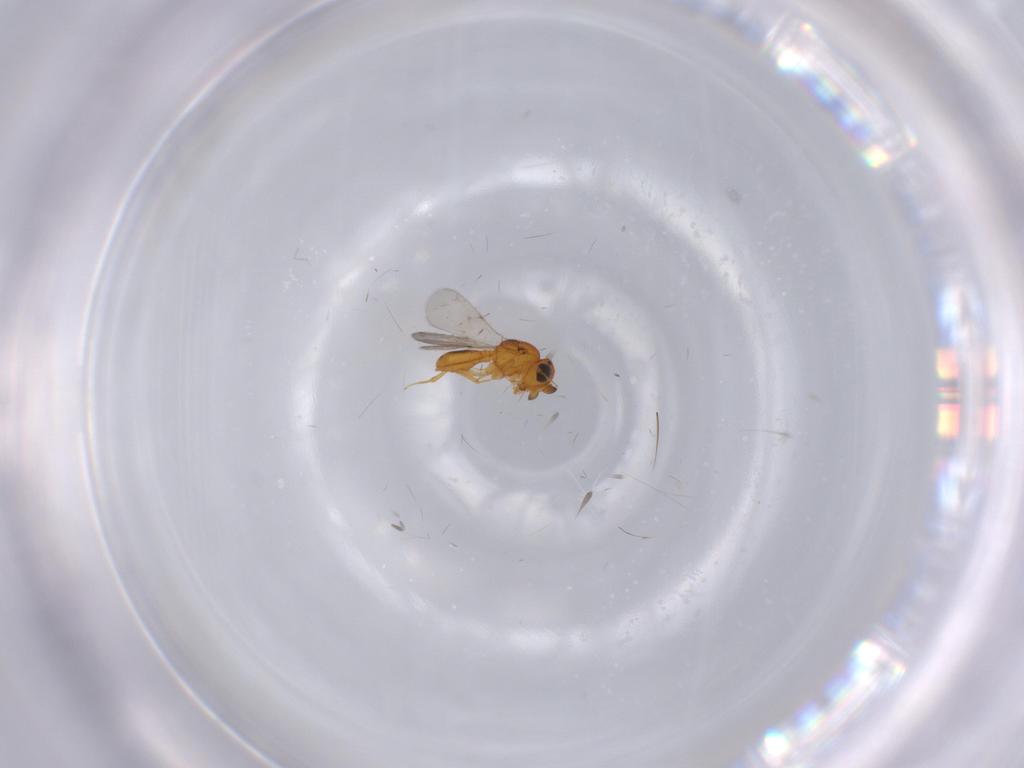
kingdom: Animalia
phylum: Arthropoda
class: Insecta
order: Hymenoptera
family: Scelionidae
